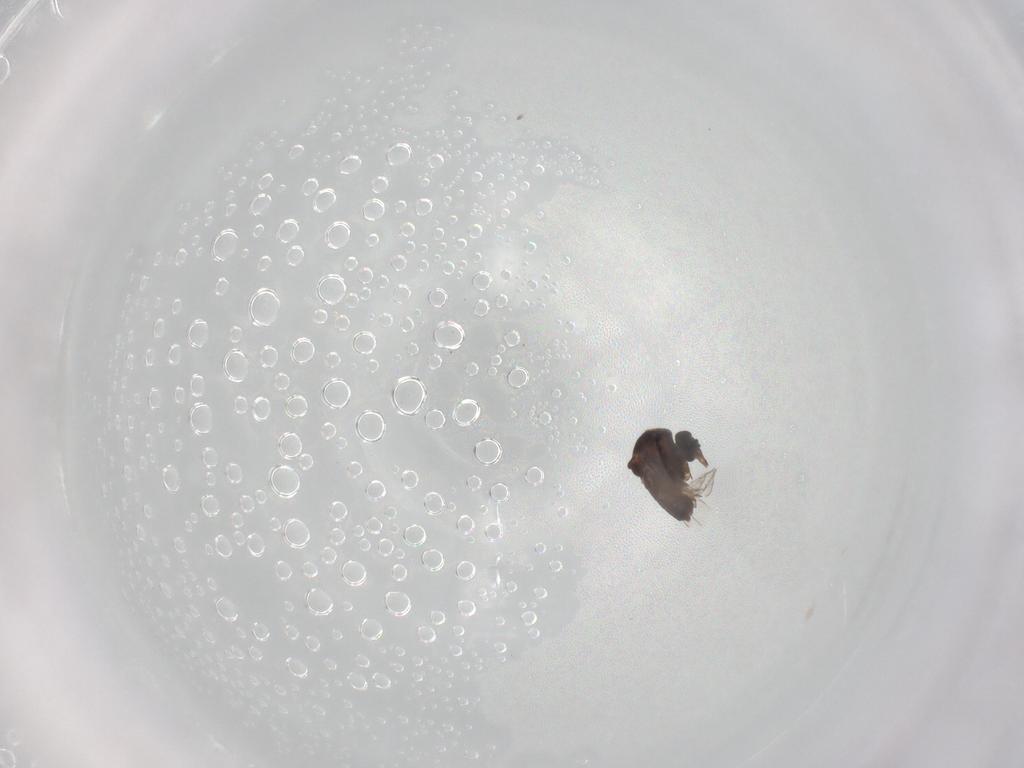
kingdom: Animalia
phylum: Arthropoda
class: Insecta
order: Diptera
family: Ceratopogonidae
